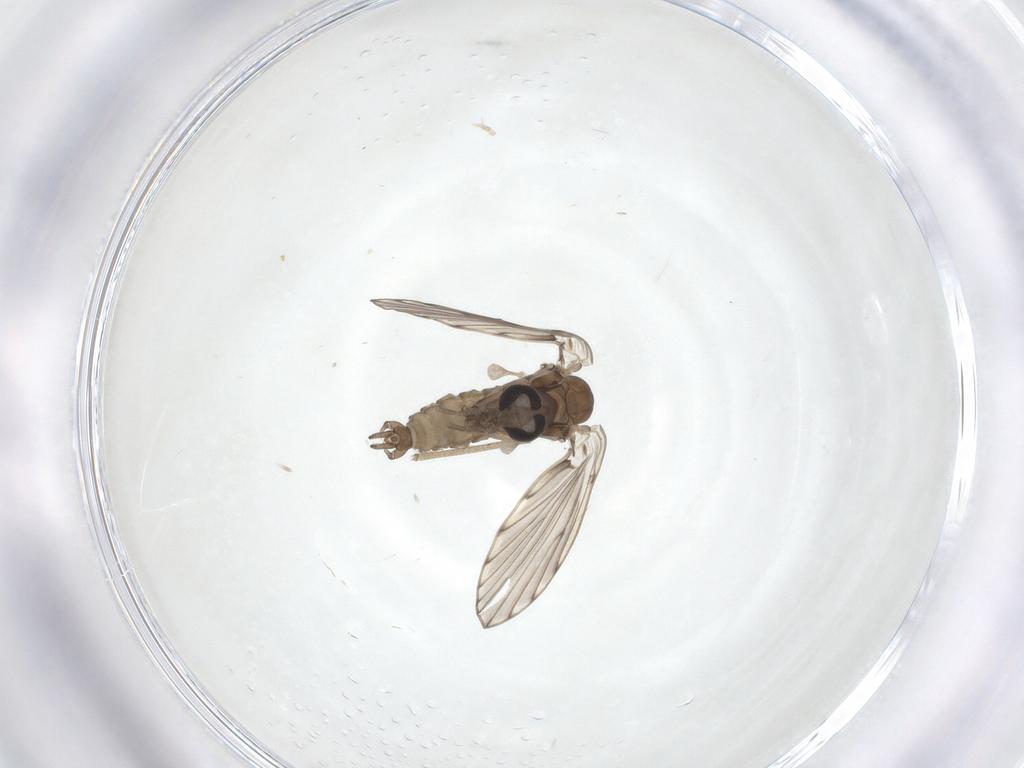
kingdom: Animalia
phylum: Arthropoda
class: Insecta
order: Diptera
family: Psychodidae
